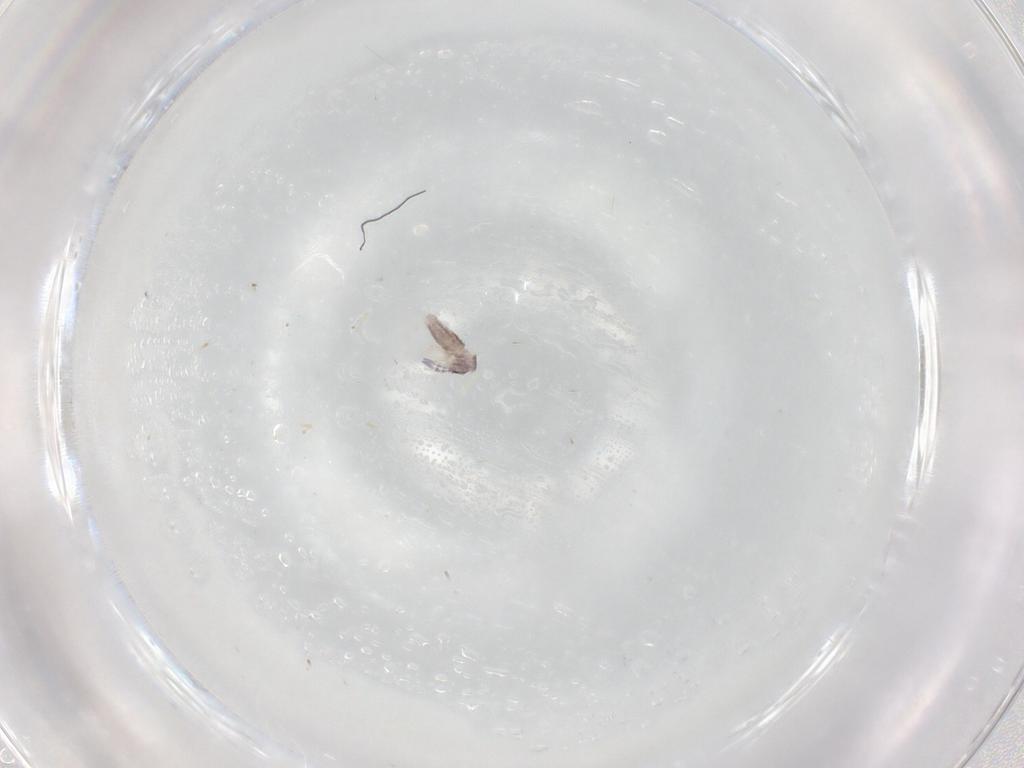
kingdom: Animalia
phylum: Arthropoda
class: Collembola
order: Entomobryomorpha
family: Entomobryidae
